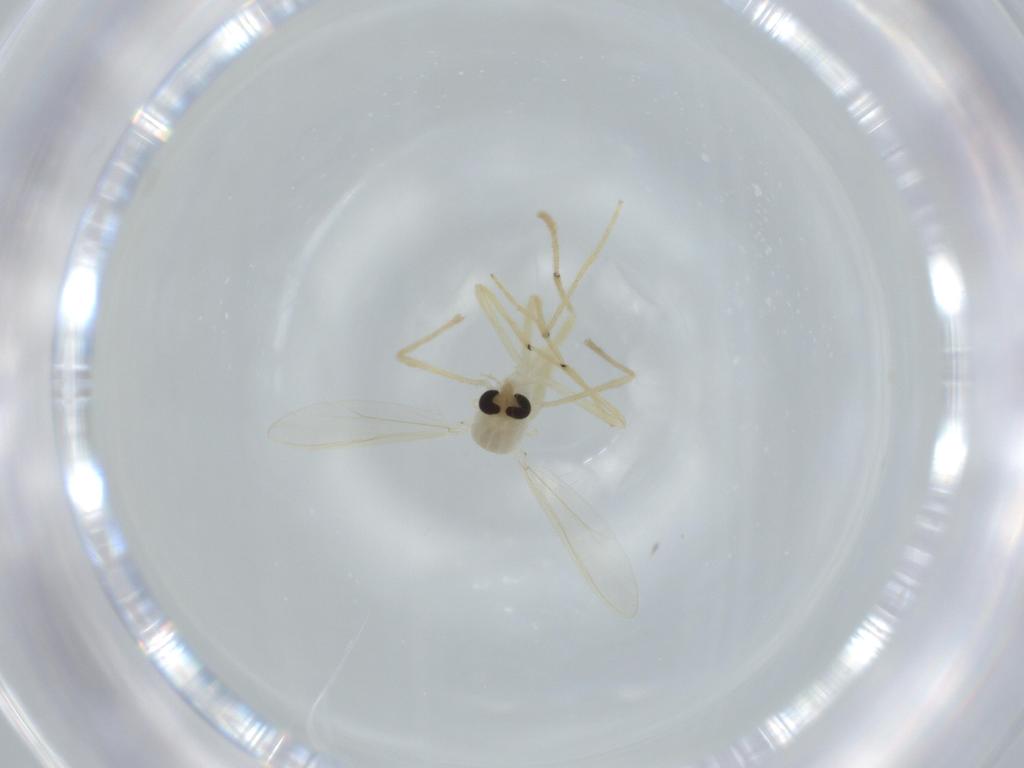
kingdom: Animalia
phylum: Arthropoda
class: Insecta
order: Diptera
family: Chironomidae
